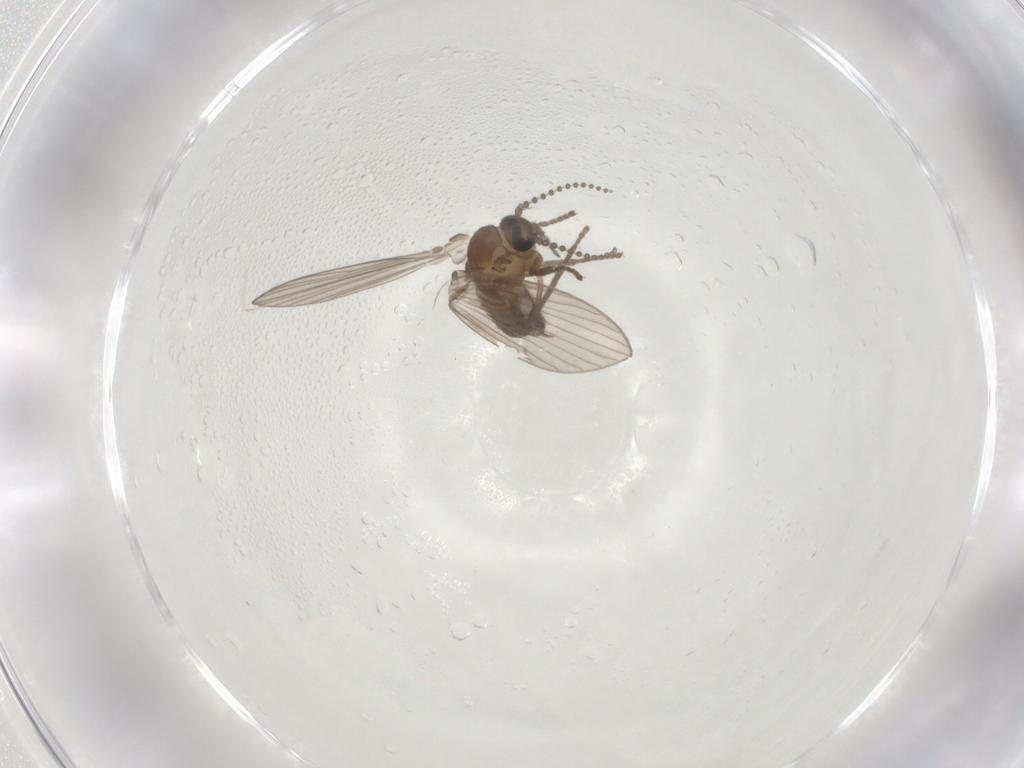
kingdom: Animalia
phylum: Arthropoda
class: Insecta
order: Diptera
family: Psychodidae
